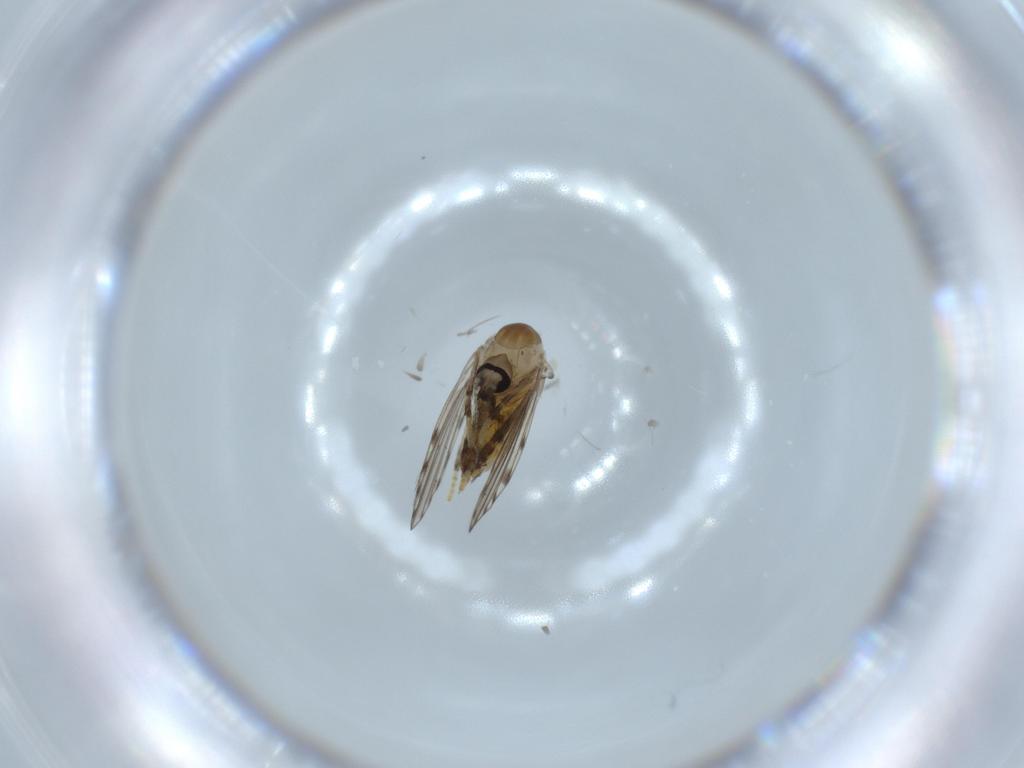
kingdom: Animalia
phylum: Arthropoda
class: Insecta
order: Diptera
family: Psychodidae
